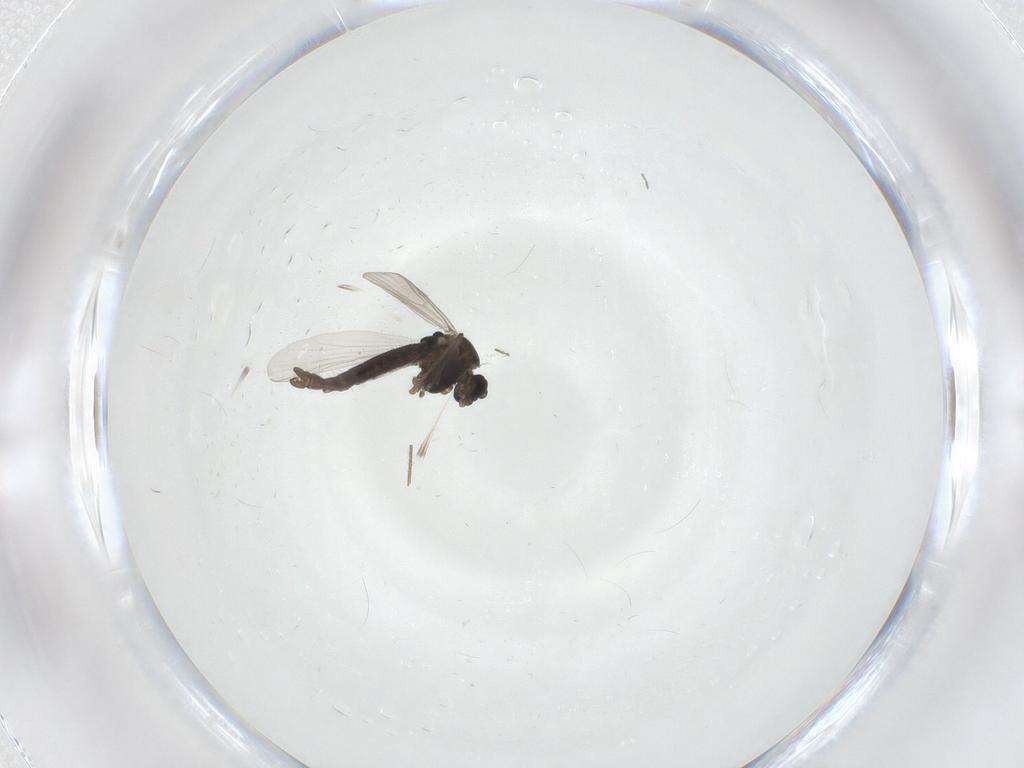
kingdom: Animalia
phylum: Arthropoda
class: Insecta
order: Diptera
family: Chironomidae
